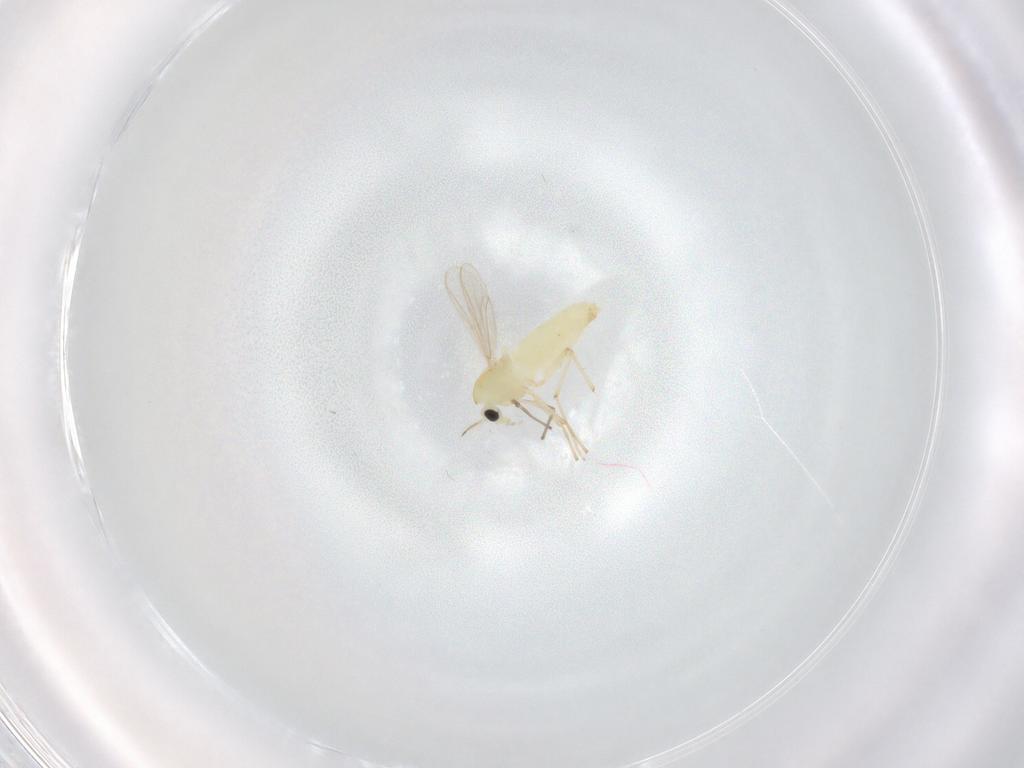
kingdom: Animalia
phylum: Arthropoda
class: Insecta
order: Diptera
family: Chironomidae
